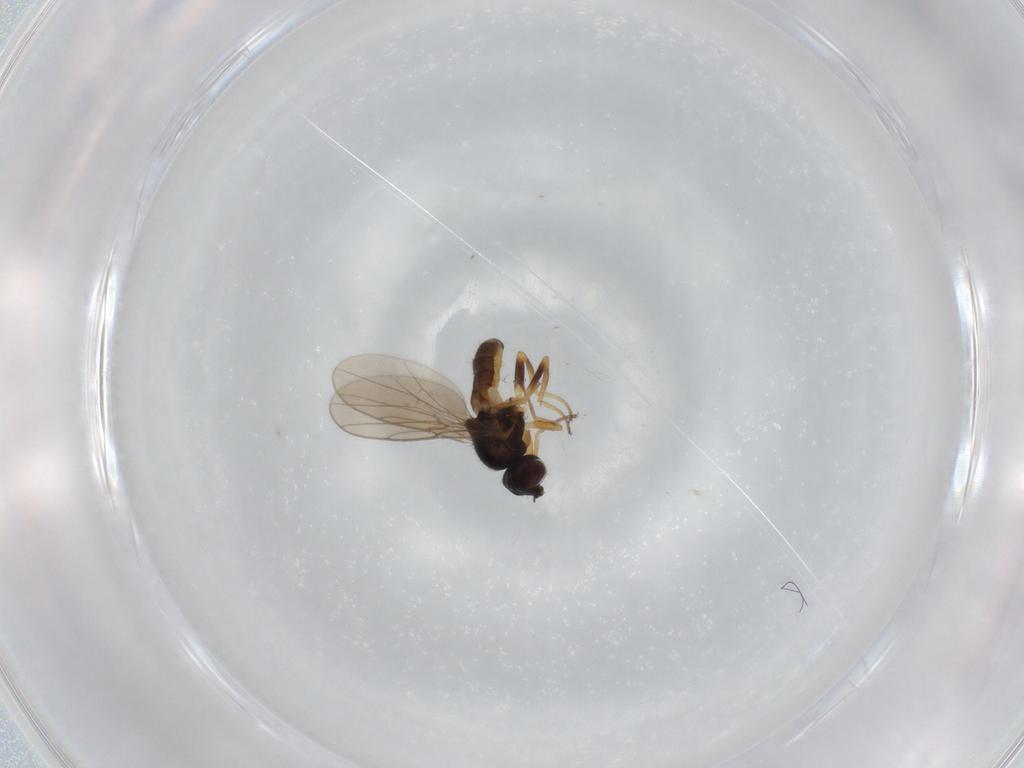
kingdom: Animalia
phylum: Arthropoda
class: Insecta
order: Diptera
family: Chloropidae
